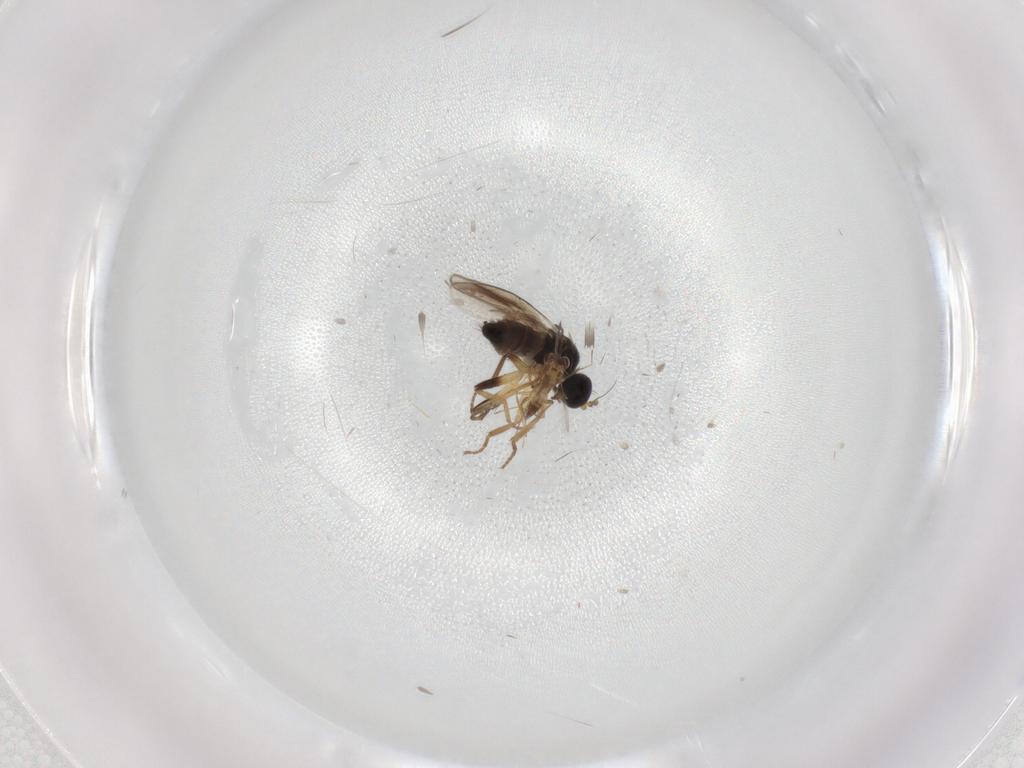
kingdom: Animalia
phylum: Arthropoda
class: Insecta
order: Diptera
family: Hybotidae
